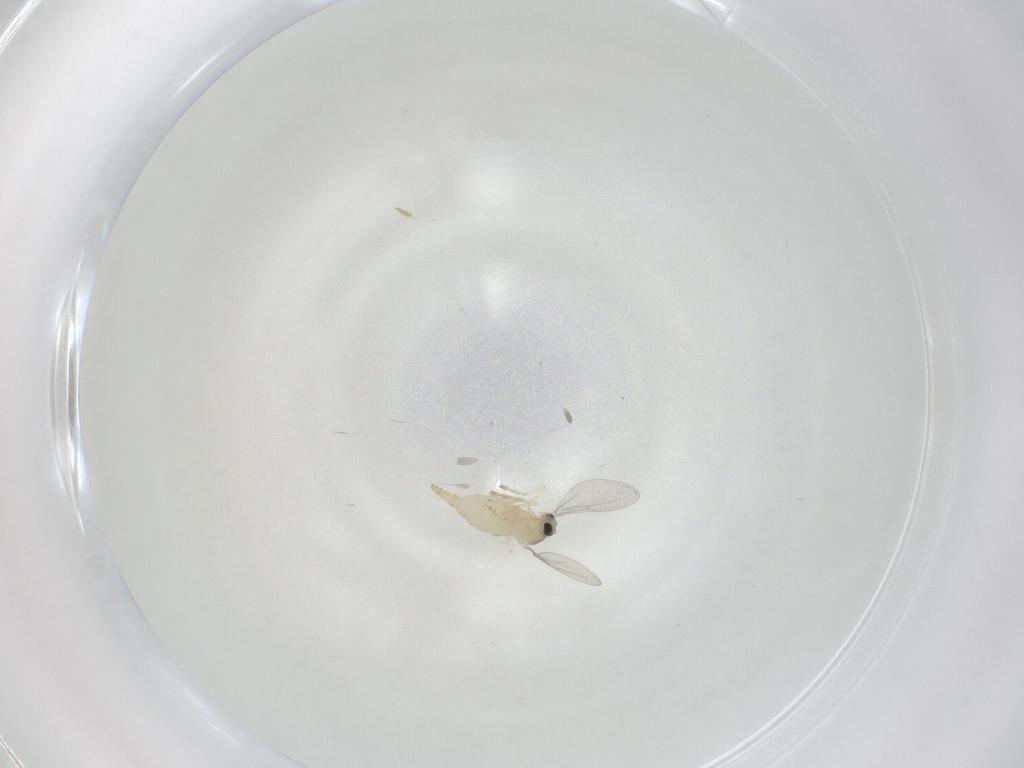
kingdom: Animalia
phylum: Arthropoda
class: Insecta
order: Diptera
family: Cecidomyiidae
